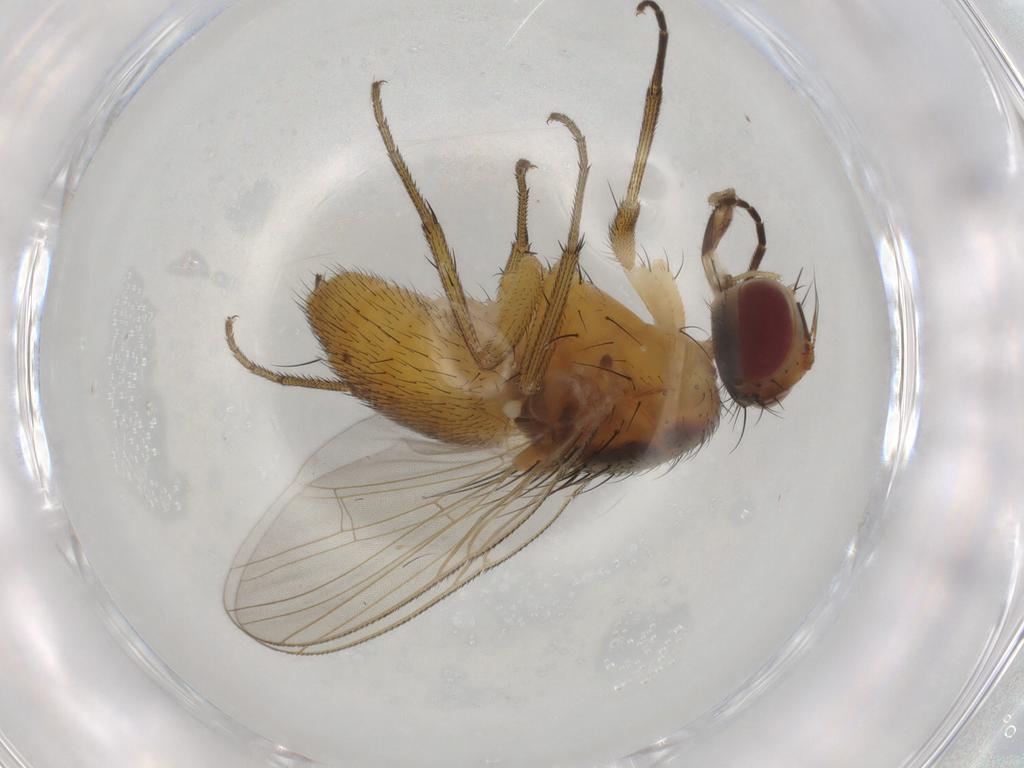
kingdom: Animalia
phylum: Arthropoda
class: Insecta
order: Diptera
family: Muscidae
